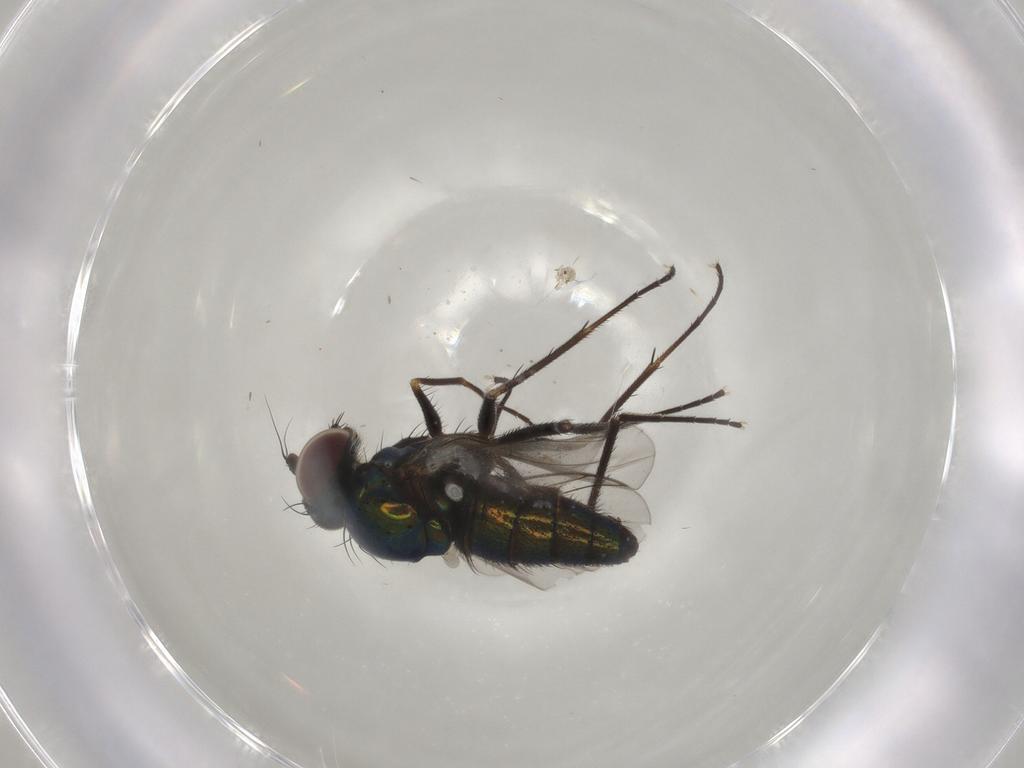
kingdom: Animalia
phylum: Arthropoda
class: Insecta
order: Diptera
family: Dolichopodidae
